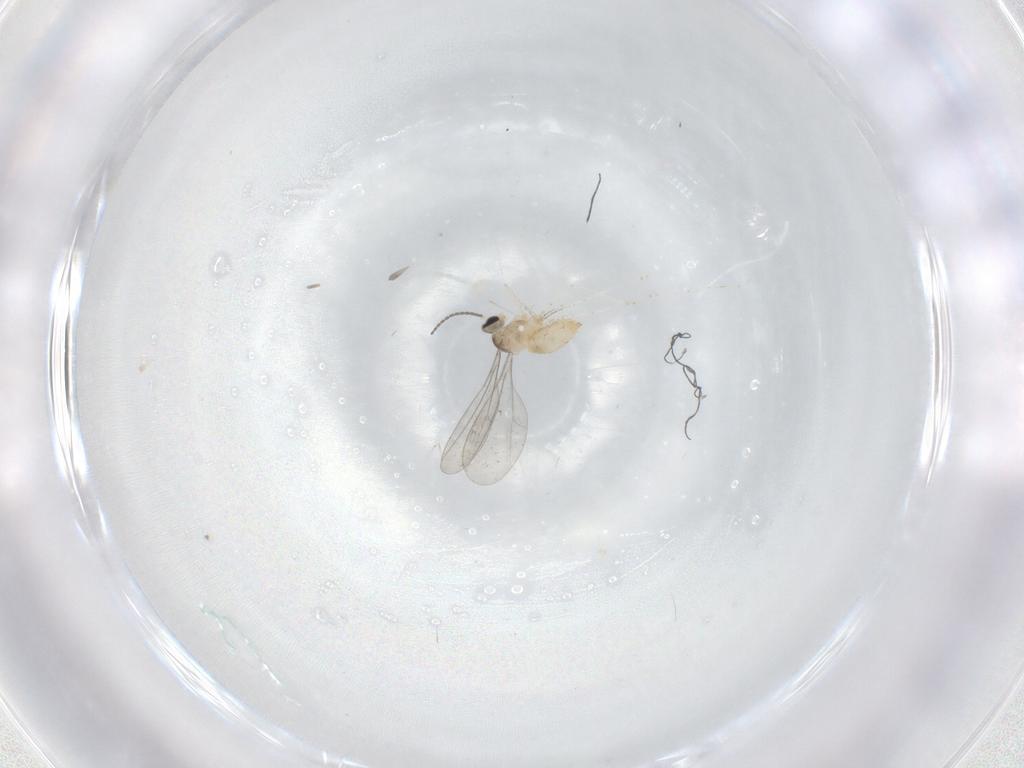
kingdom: Animalia
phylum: Arthropoda
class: Insecta
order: Diptera
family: Cecidomyiidae
